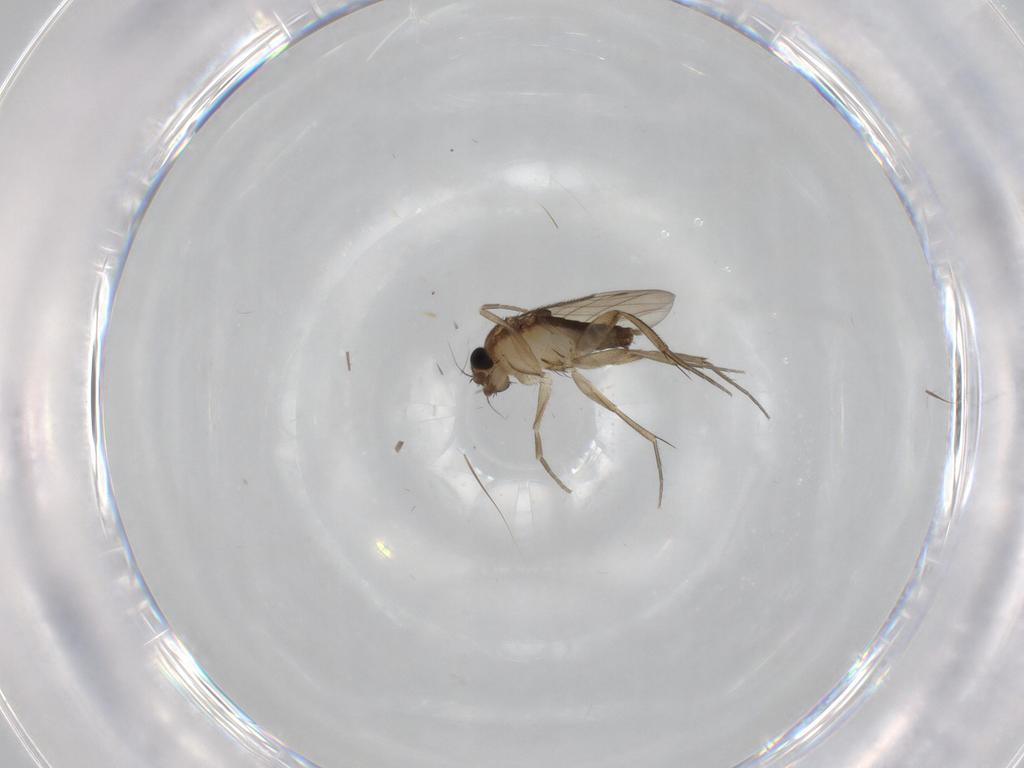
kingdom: Animalia
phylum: Arthropoda
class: Insecta
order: Diptera
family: Phoridae
